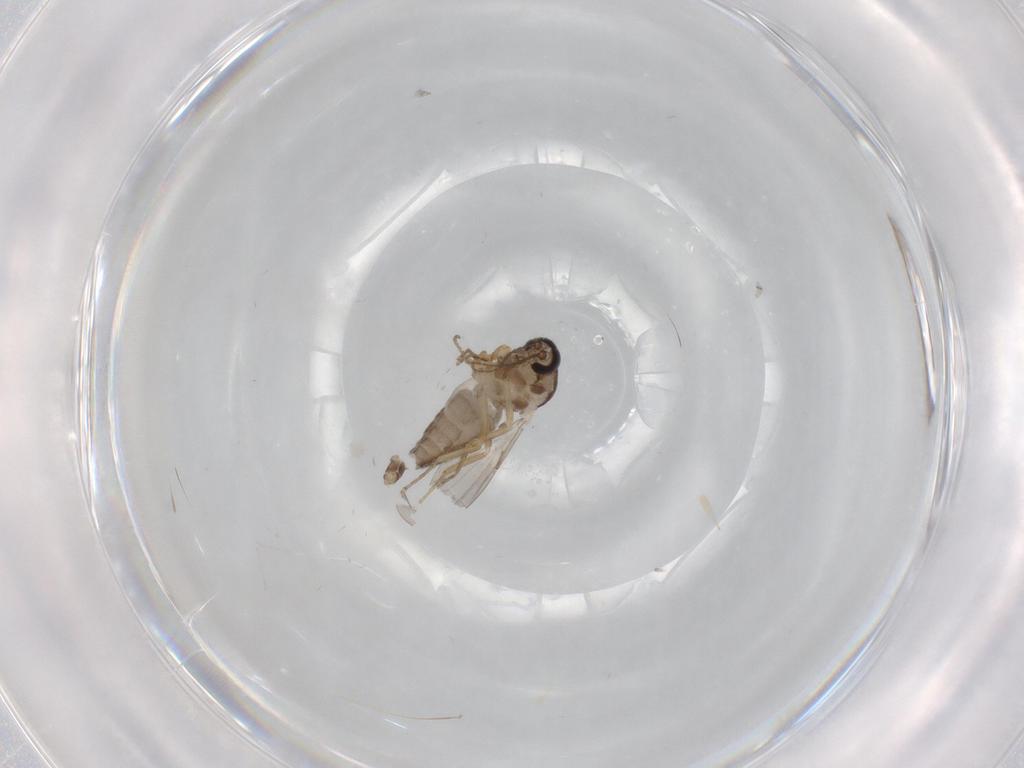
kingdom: Animalia
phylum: Arthropoda
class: Insecta
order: Diptera
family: Ceratopogonidae
